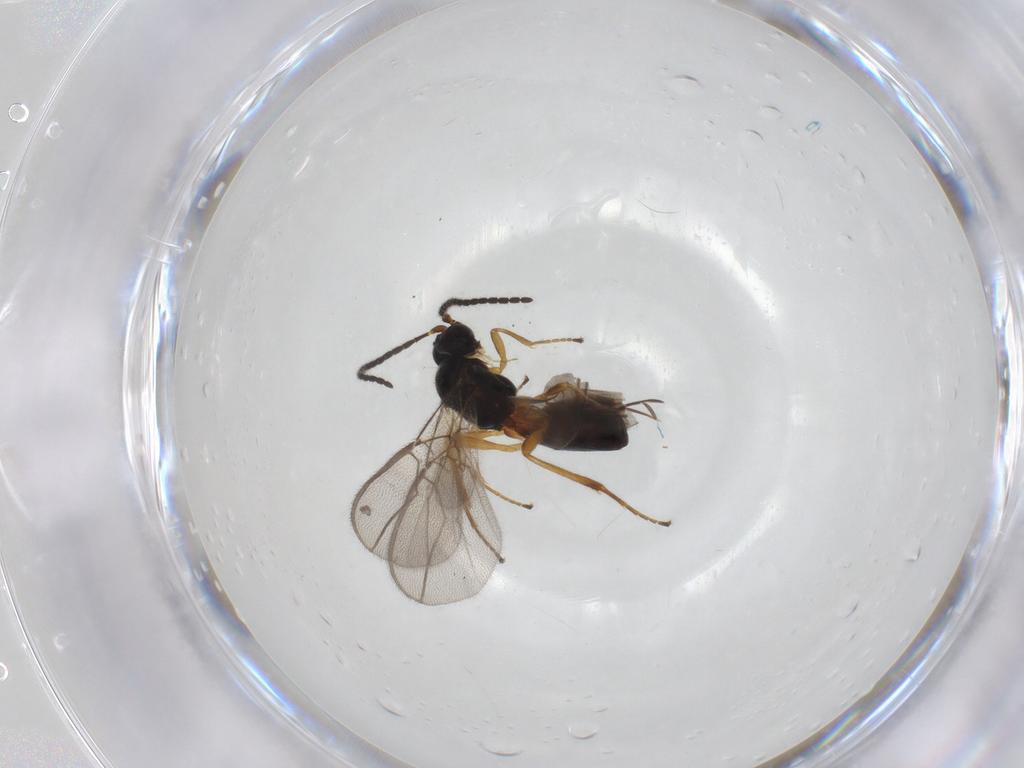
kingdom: Animalia
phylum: Arthropoda
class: Insecta
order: Hymenoptera
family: Braconidae
